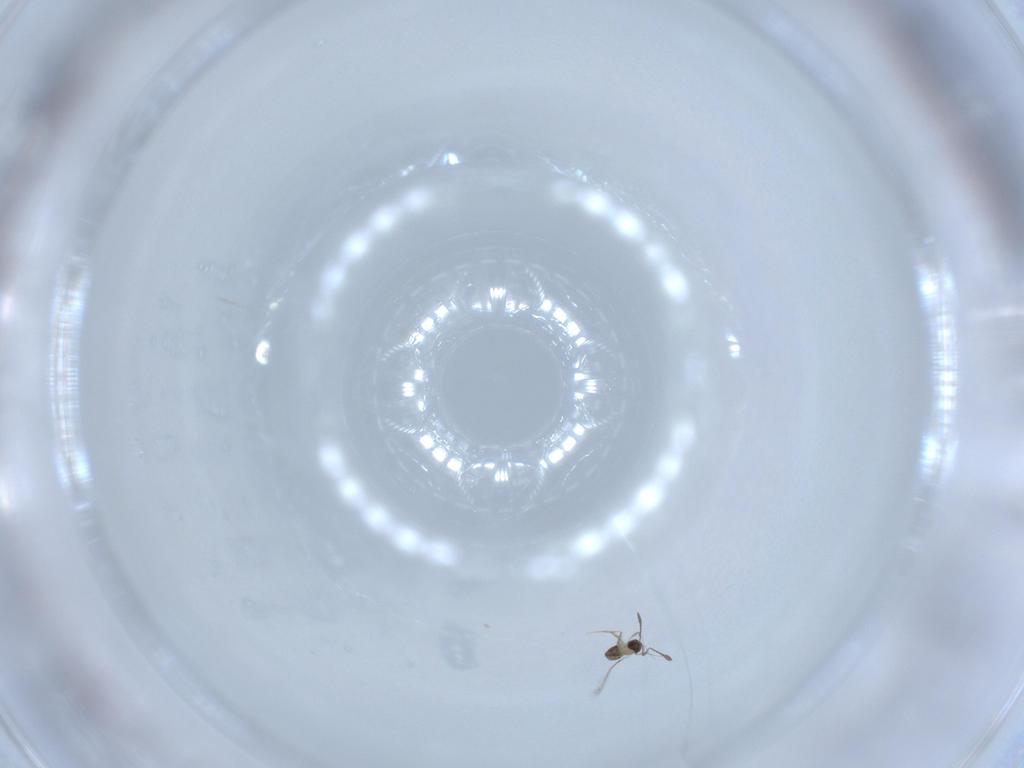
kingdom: Animalia
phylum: Arthropoda
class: Insecta
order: Hymenoptera
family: Mymaridae
